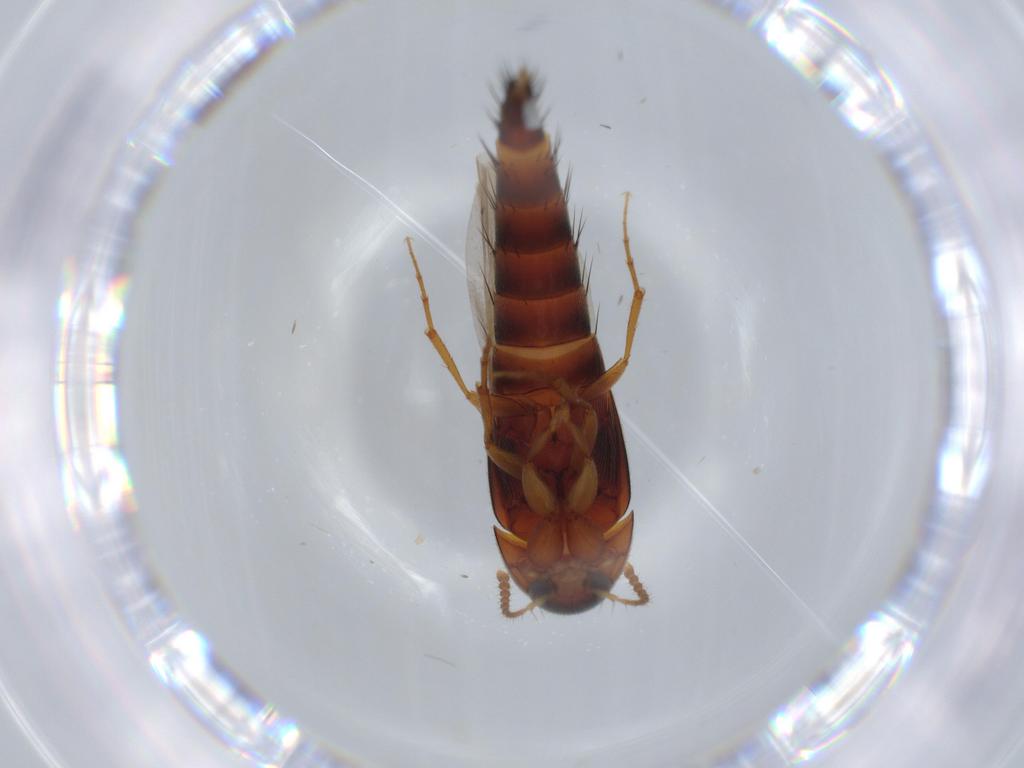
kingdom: Animalia
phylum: Arthropoda
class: Insecta
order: Coleoptera
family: Staphylinidae
